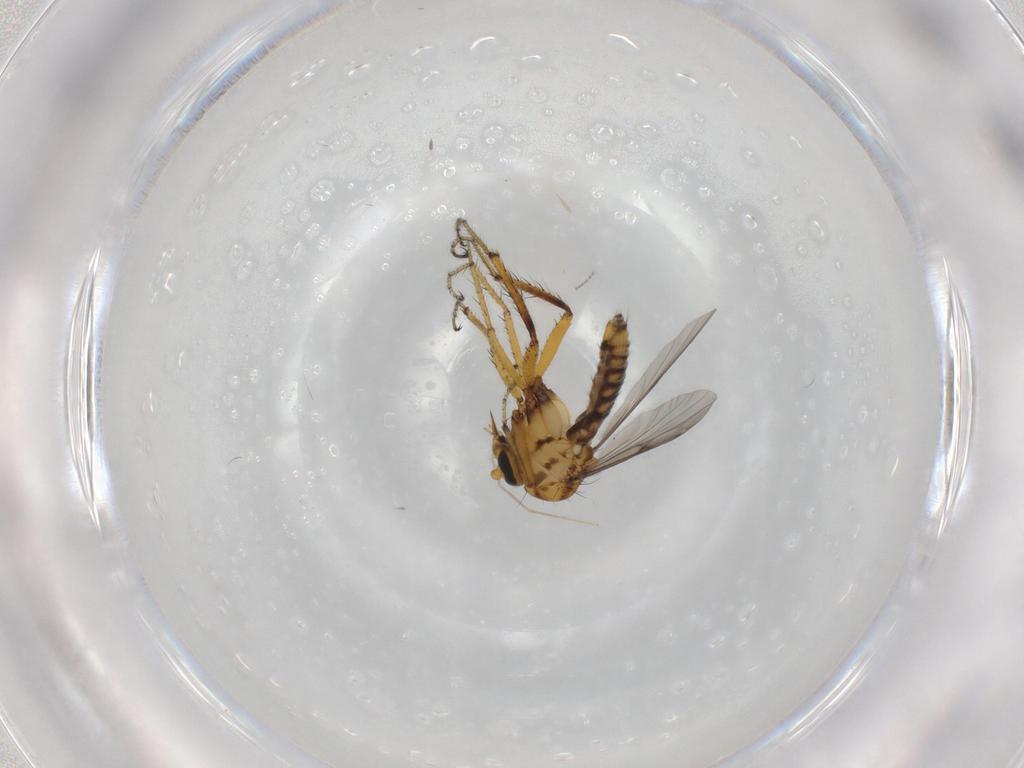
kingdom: Animalia
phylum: Arthropoda
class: Insecta
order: Diptera
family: Ceratopogonidae
